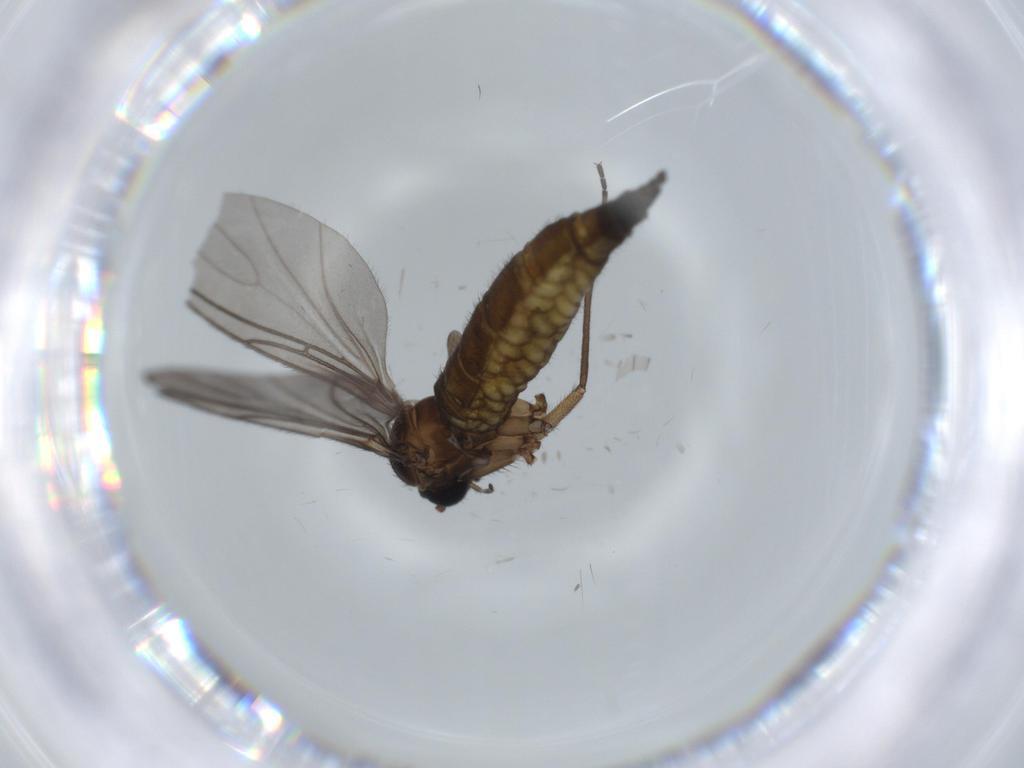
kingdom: Animalia
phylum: Arthropoda
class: Insecta
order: Diptera
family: Sciaridae
